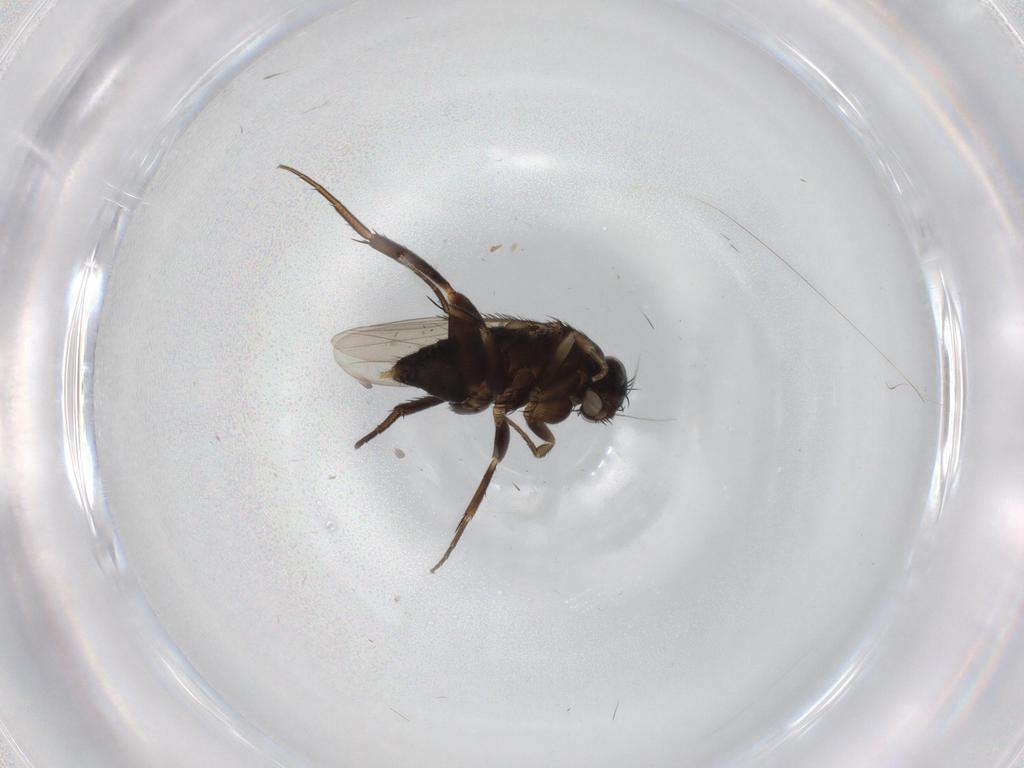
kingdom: Animalia
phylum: Arthropoda
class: Insecta
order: Diptera
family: Phoridae
